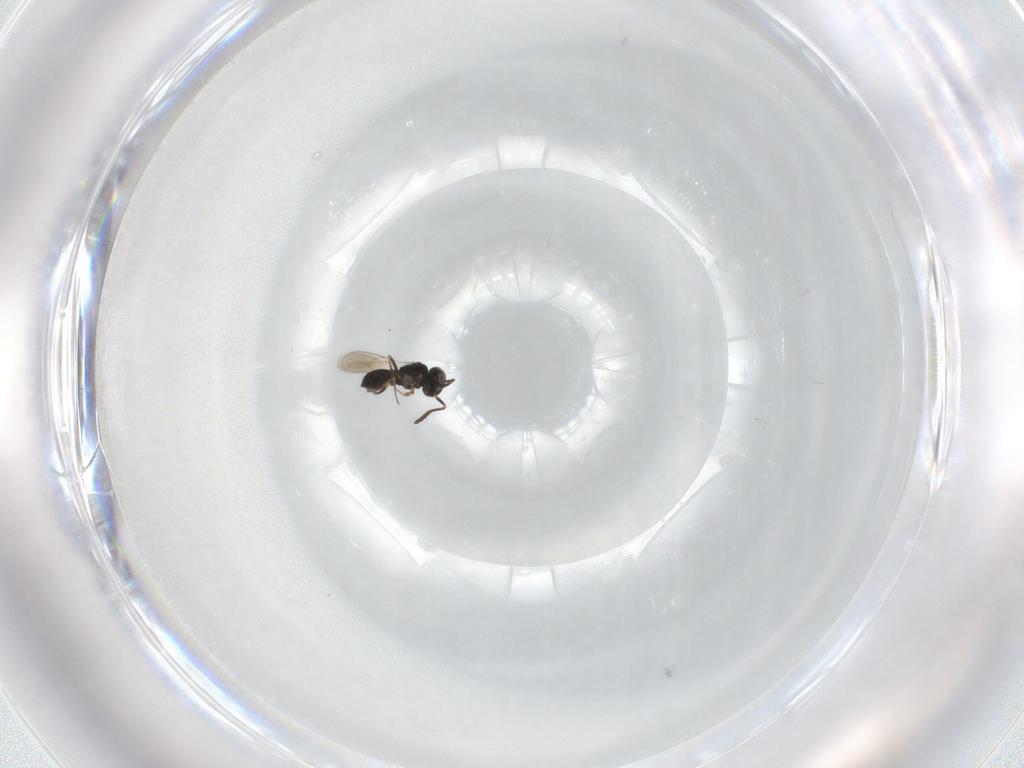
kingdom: Animalia
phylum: Arthropoda
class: Insecta
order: Hymenoptera
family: Scelionidae
